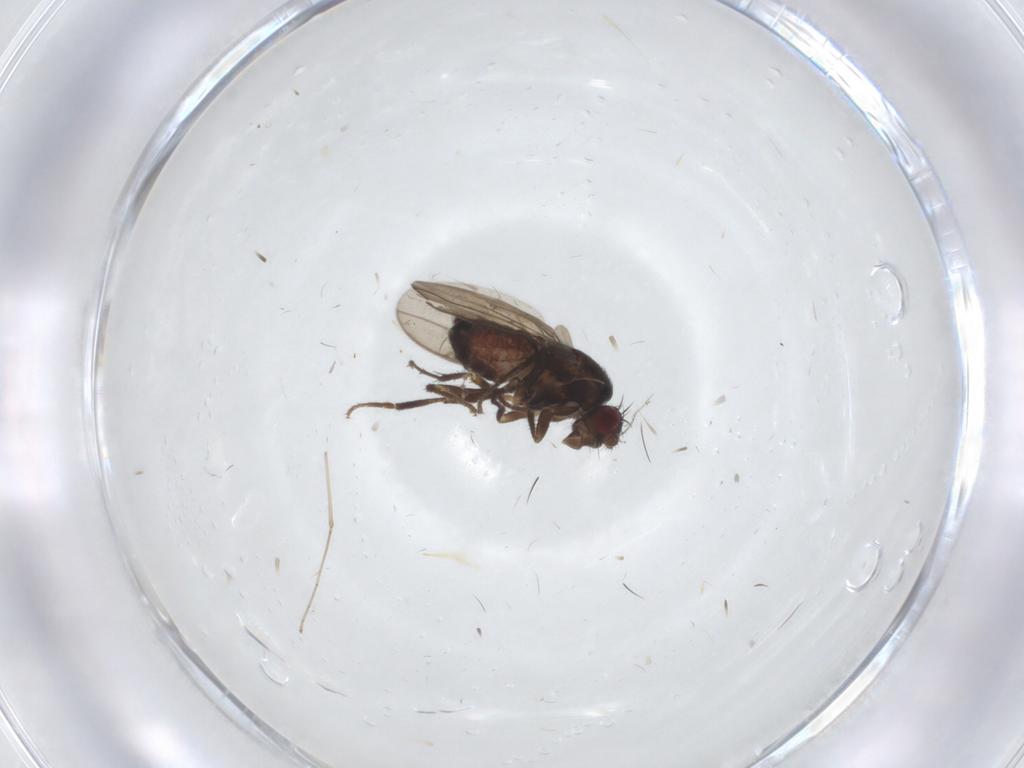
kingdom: Animalia
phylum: Arthropoda
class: Insecta
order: Diptera
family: Sphaeroceridae
